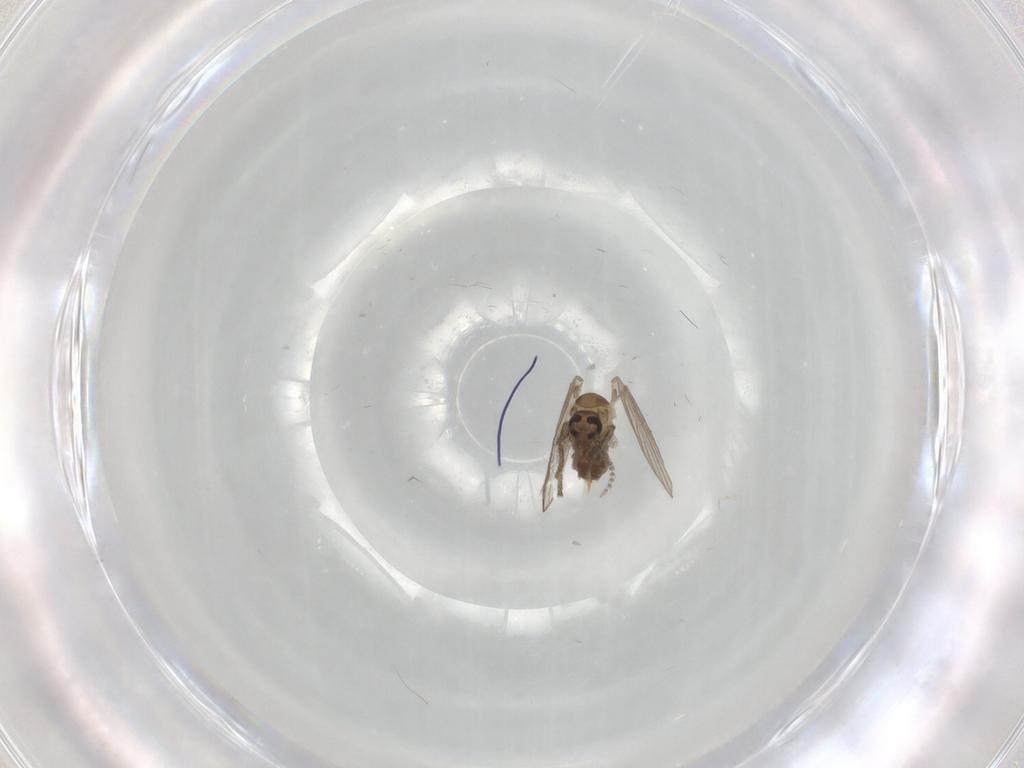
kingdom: Animalia
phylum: Arthropoda
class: Insecta
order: Diptera
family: Psychodidae
